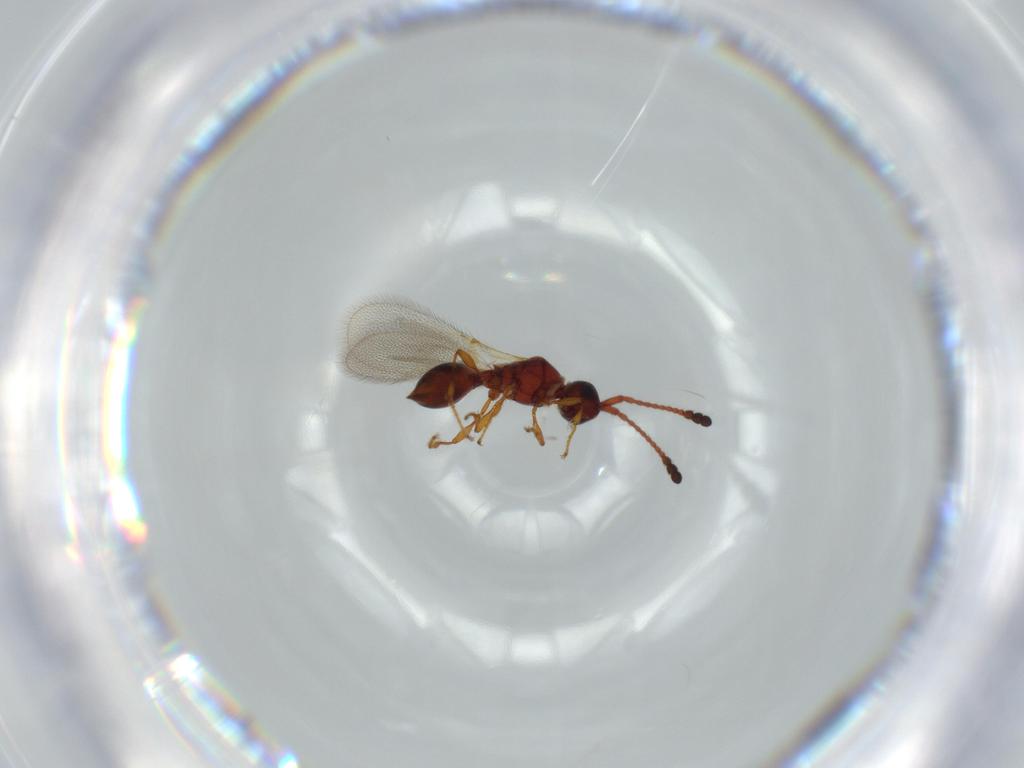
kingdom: Animalia
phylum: Arthropoda
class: Insecta
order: Hymenoptera
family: Diapriidae
